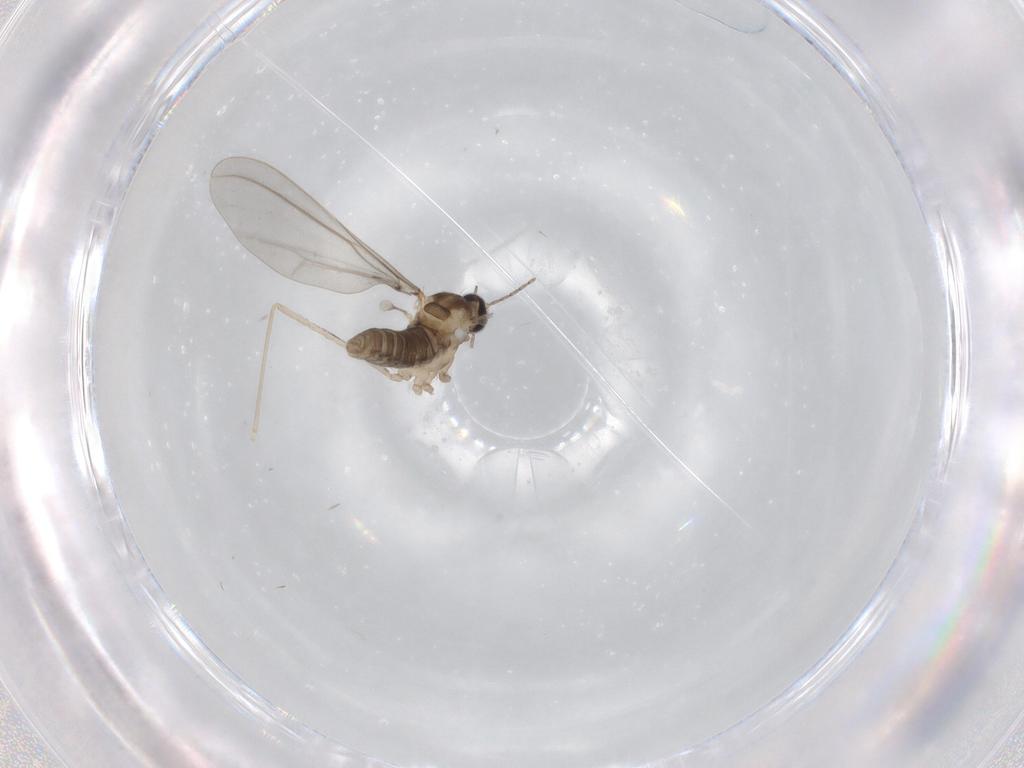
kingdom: Animalia
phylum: Arthropoda
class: Insecta
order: Diptera
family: Cecidomyiidae
